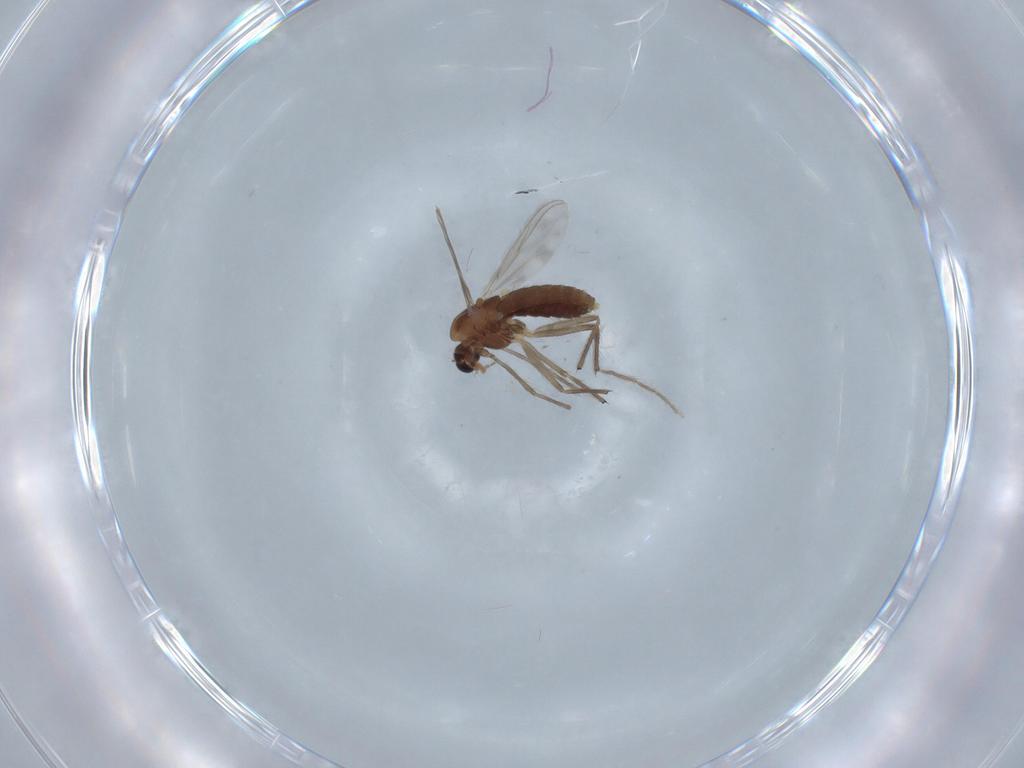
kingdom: Animalia
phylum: Arthropoda
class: Insecta
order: Diptera
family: Chironomidae
